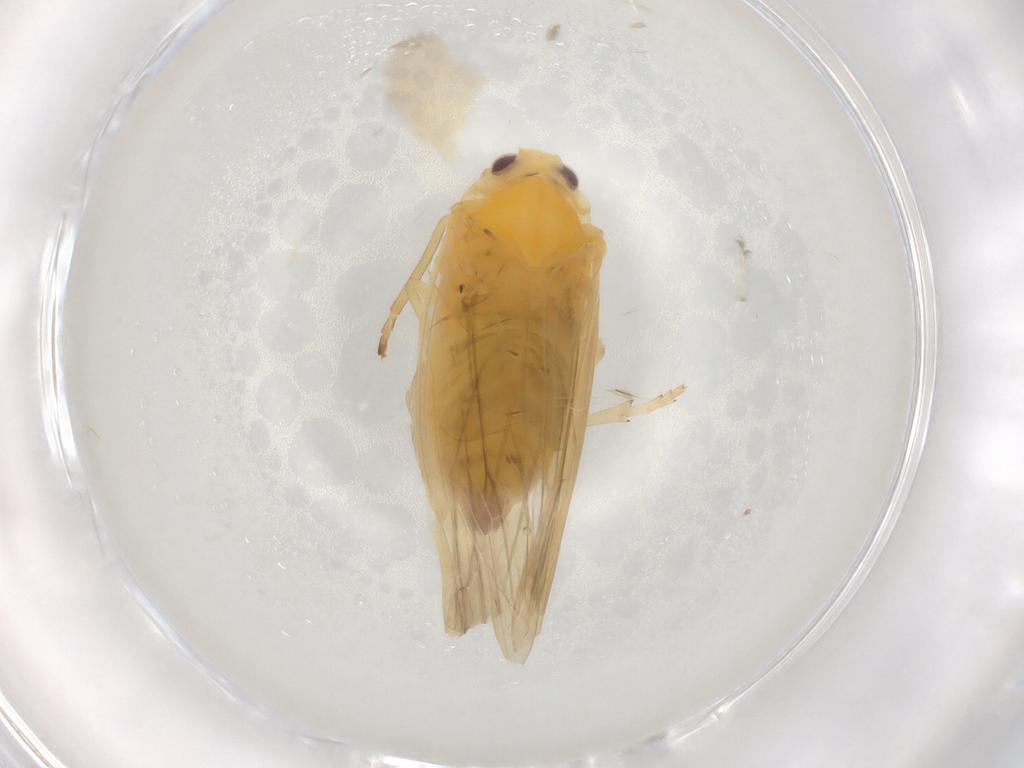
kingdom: Animalia
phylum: Arthropoda
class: Insecta
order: Hemiptera
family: Derbidae
